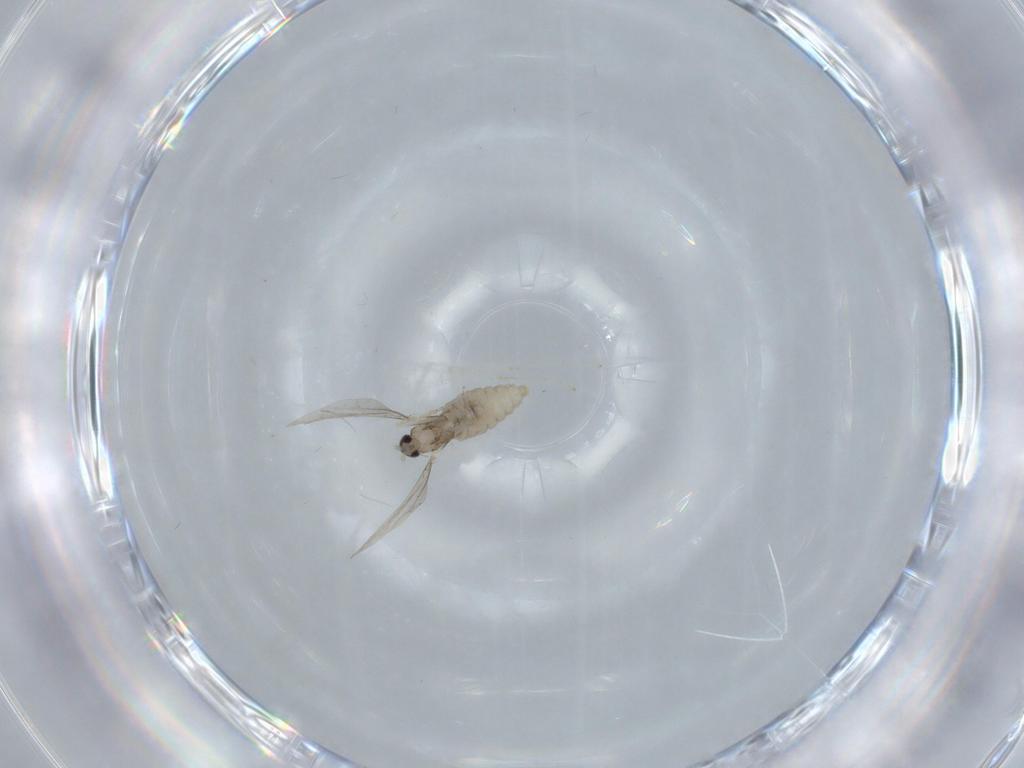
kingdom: Animalia
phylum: Arthropoda
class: Insecta
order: Diptera
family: Cecidomyiidae
